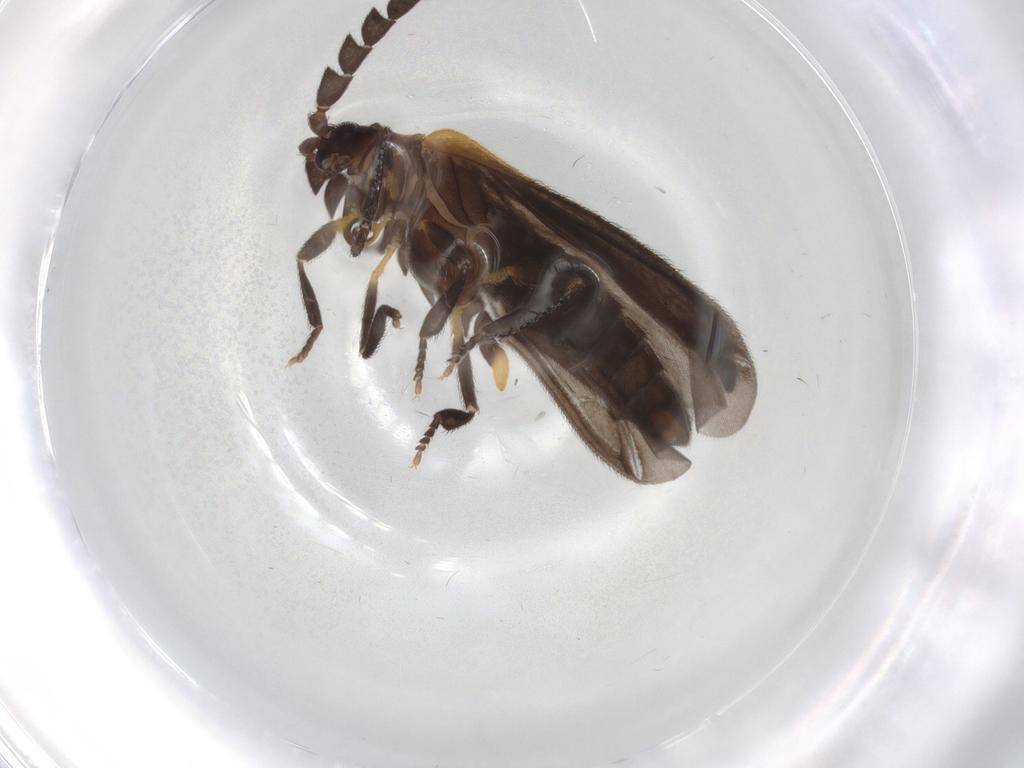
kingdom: Animalia
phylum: Arthropoda
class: Insecta
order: Coleoptera
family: Lycidae
